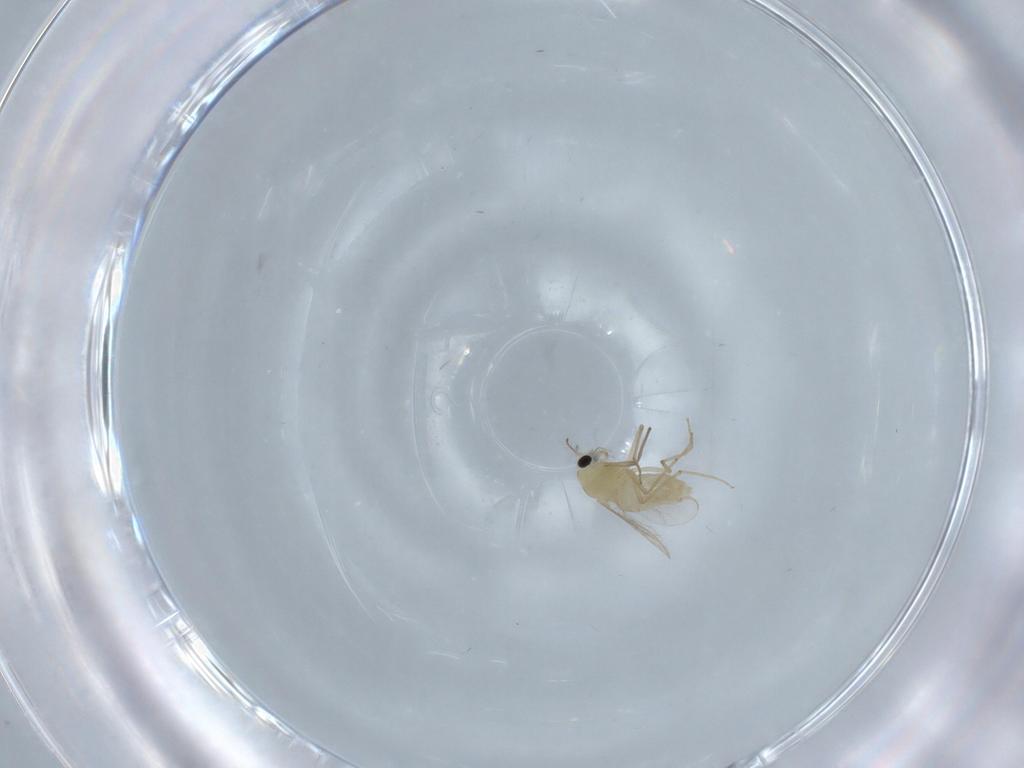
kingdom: Animalia
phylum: Arthropoda
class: Insecta
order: Diptera
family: Chironomidae
